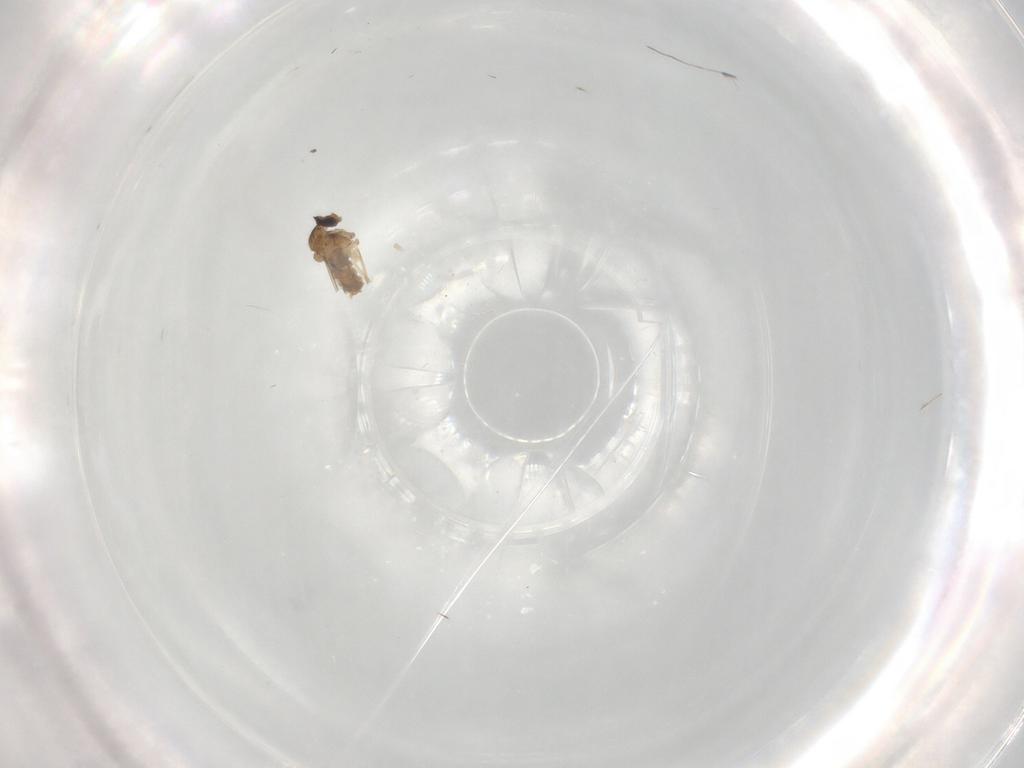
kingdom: Animalia
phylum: Arthropoda
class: Insecta
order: Diptera
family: Cecidomyiidae
